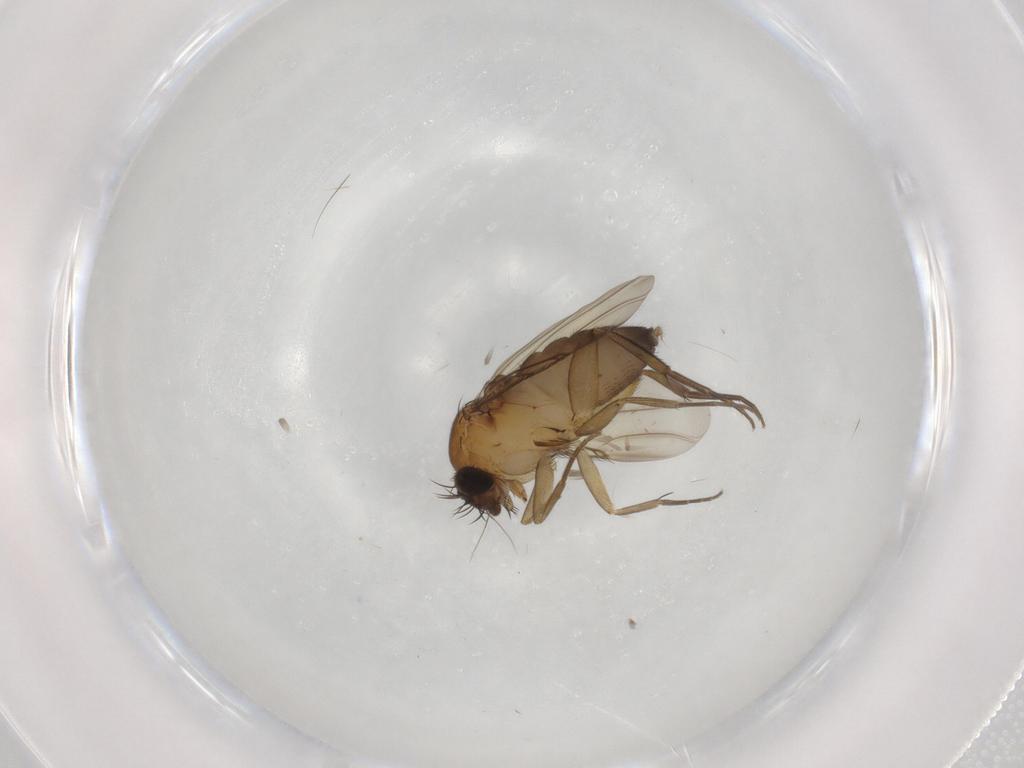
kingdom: Animalia
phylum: Arthropoda
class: Insecta
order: Diptera
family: Phoridae
